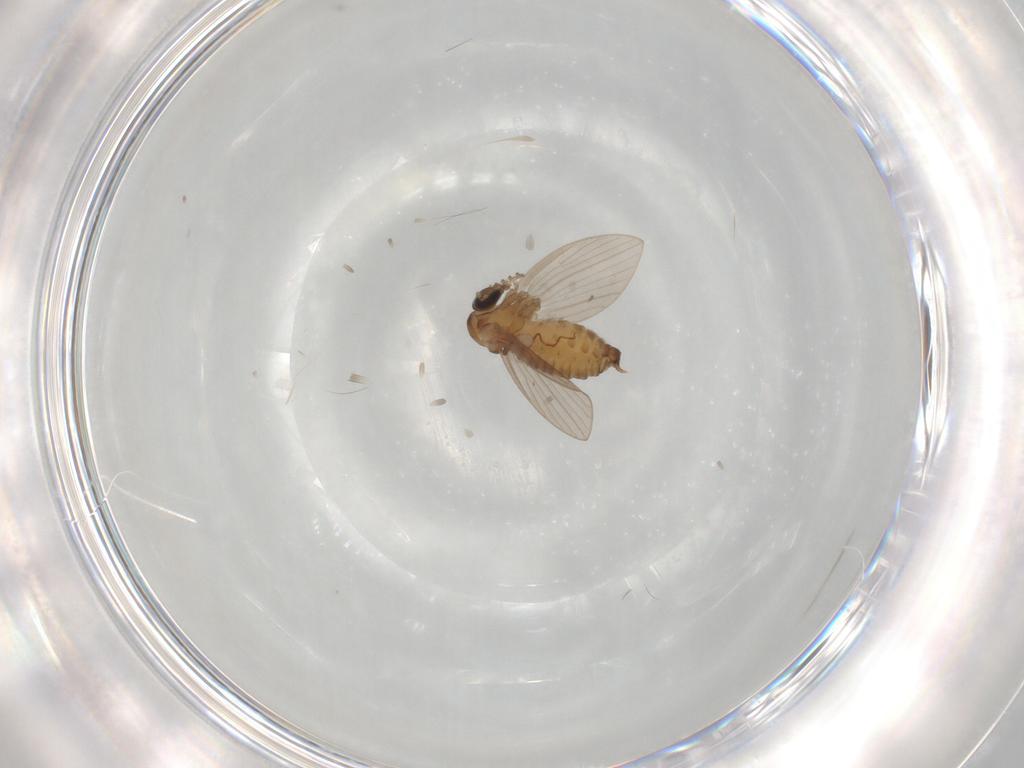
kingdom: Animalia
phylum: Arthropoda
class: Insecta
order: Diptera
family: Psychodidae
